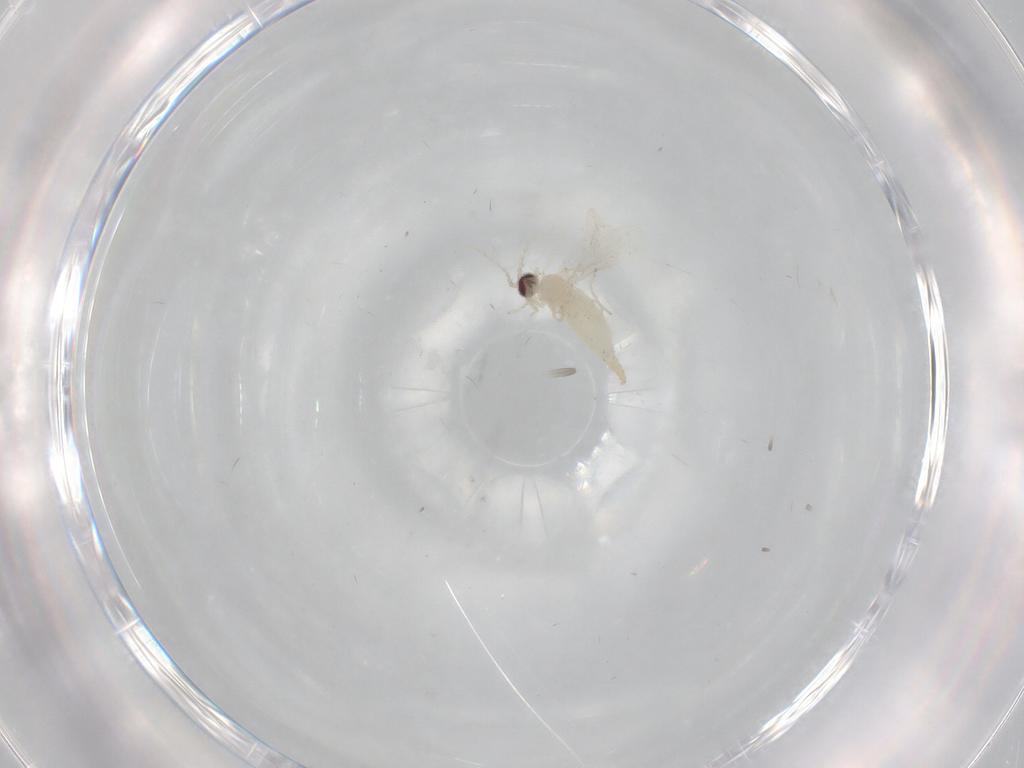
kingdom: Animalia
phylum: Arthropoda
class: Insecta
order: Diptera
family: Cecidomyiidae
